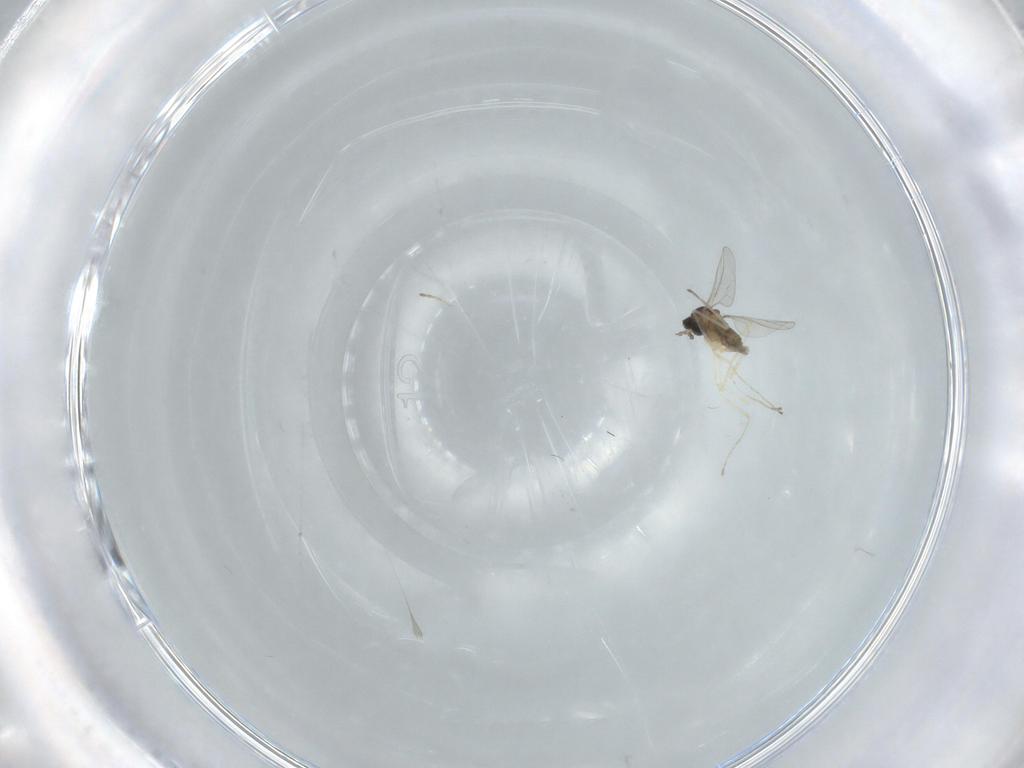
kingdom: Animalia
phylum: Arthropoda
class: Insecta
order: Diptera
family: Cecidomyiidae
